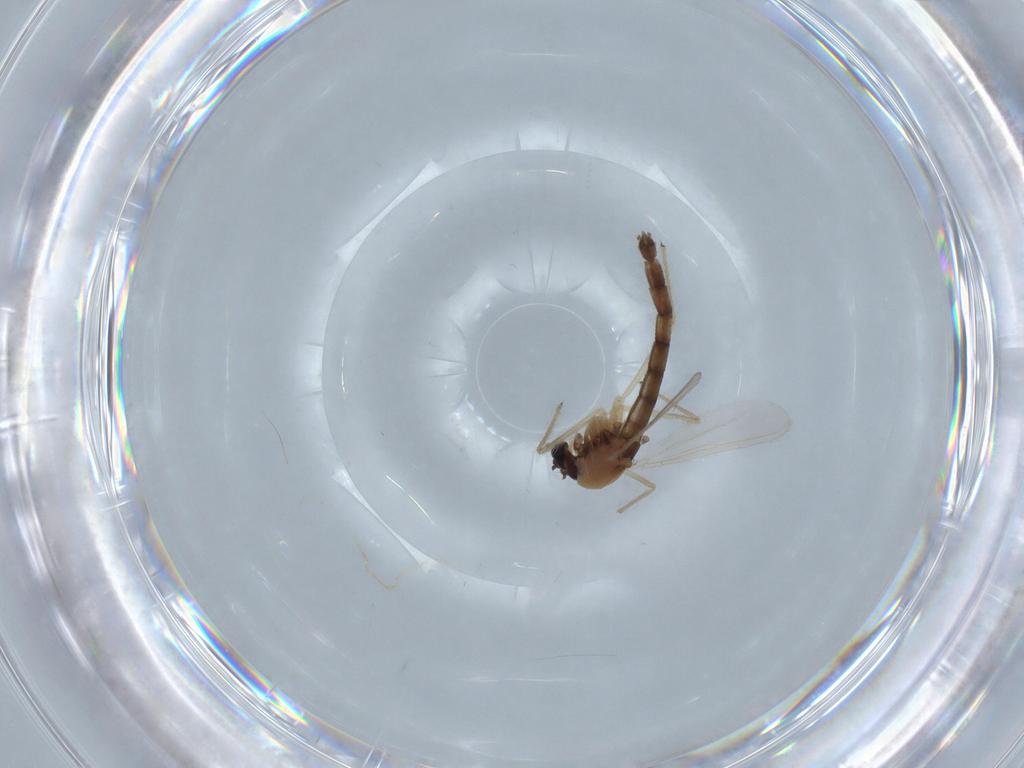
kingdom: Animalia
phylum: Arthropoda
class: Insecta
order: Diptera
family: Chironomidae
